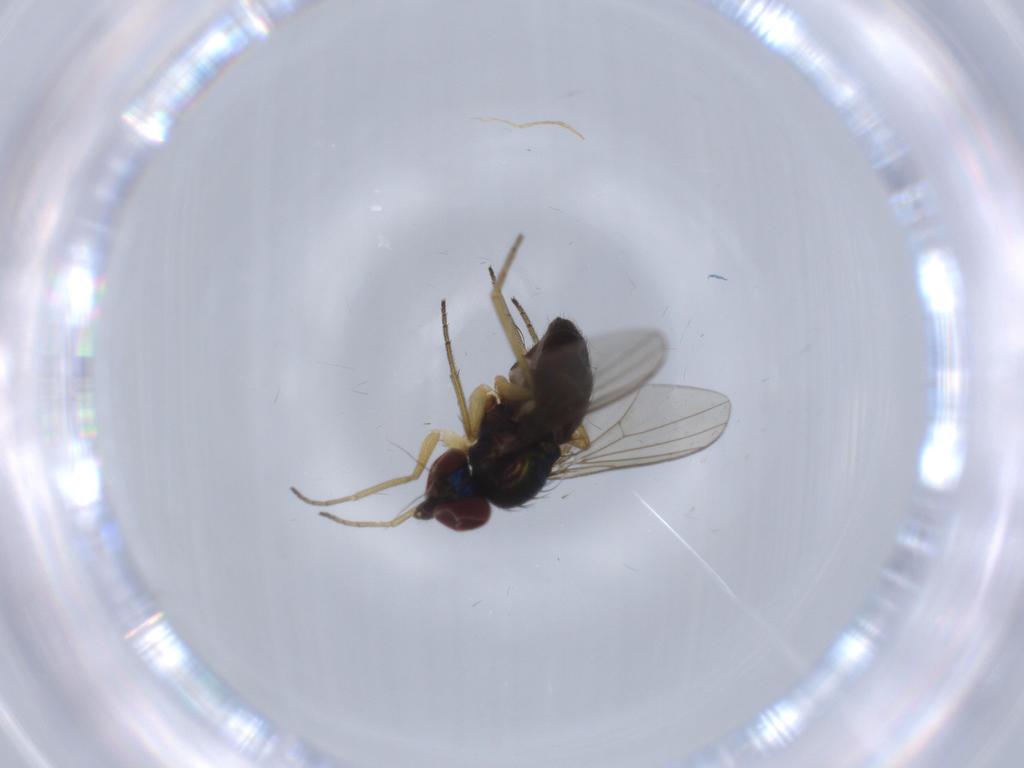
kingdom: Animalia
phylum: Arthropoda
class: Insecta
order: Diptera
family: Dolichopodidae
